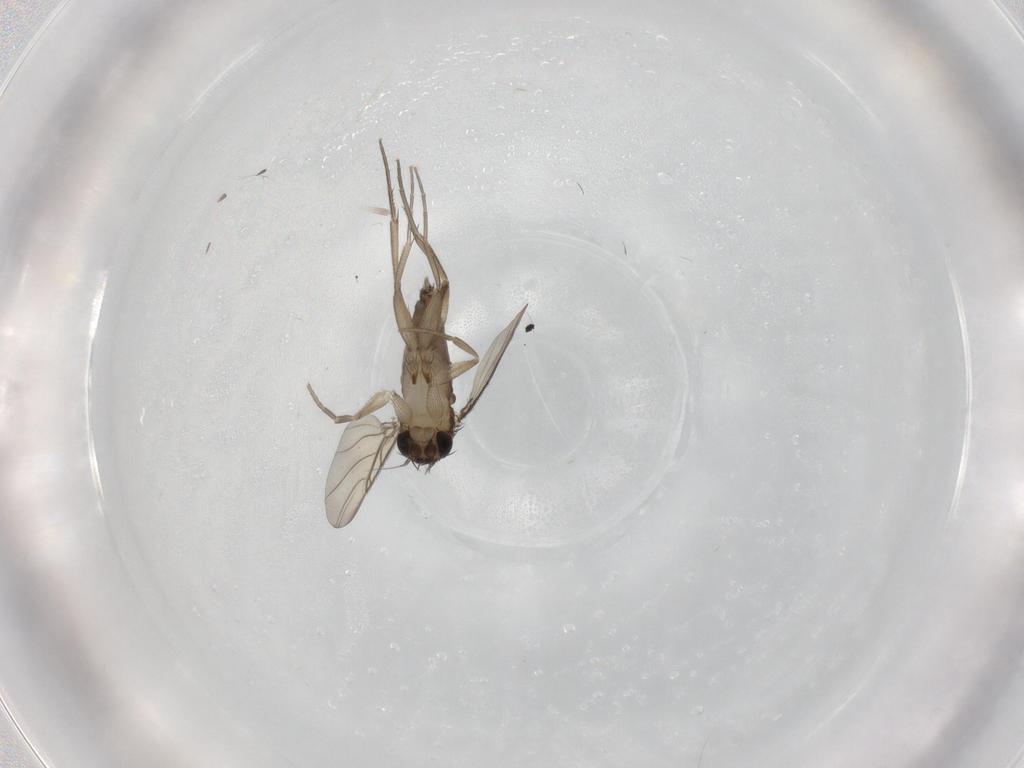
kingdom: Animalia
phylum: Arthropoda
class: Insecta
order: Diptera
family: Phoridae
